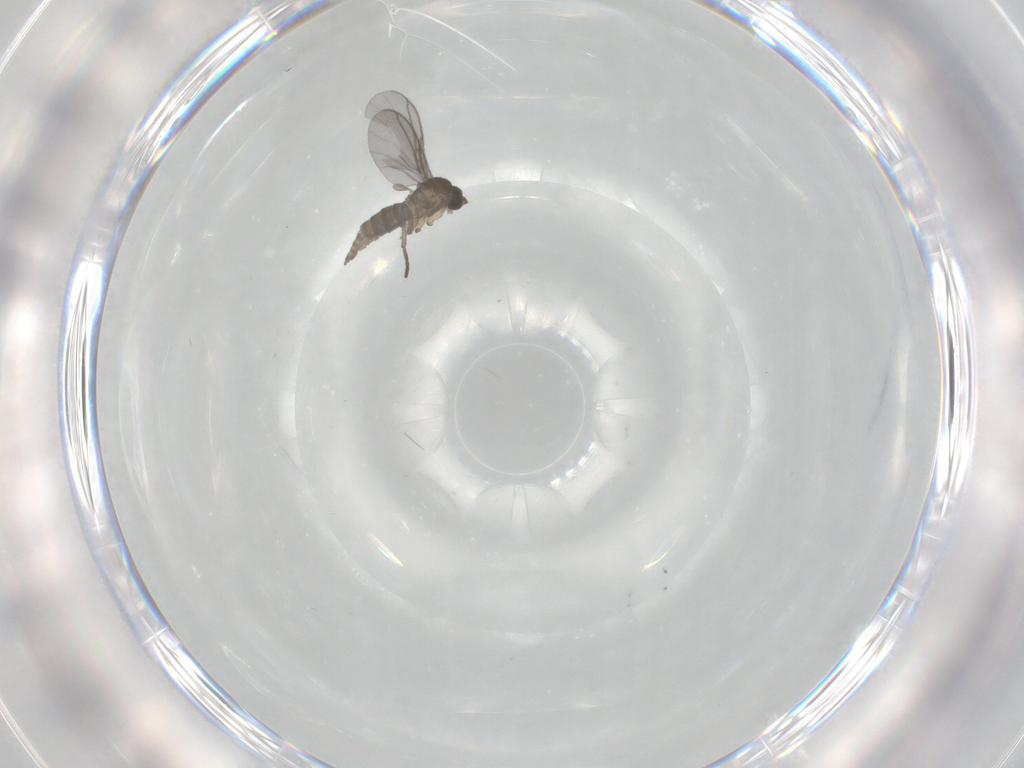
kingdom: Animalia
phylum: Arthropoda
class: Insecta
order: Diptera
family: Sciaridae
